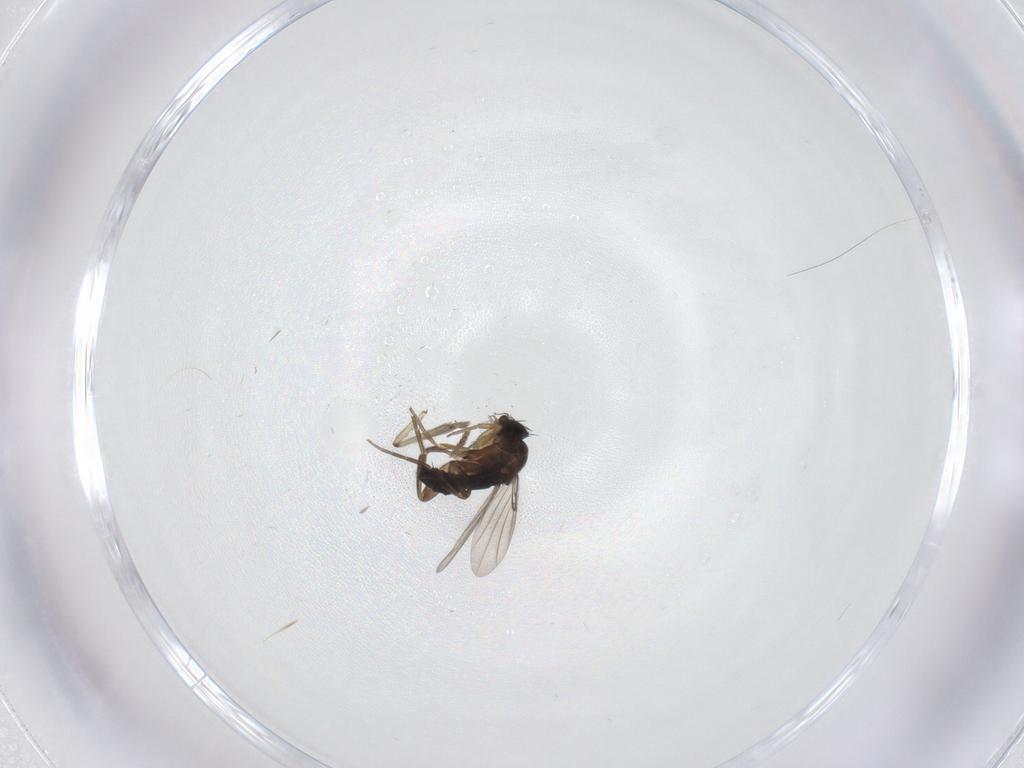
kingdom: Animalia
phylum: Arthropoda
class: Insecta
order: Diptera
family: Phoridae
